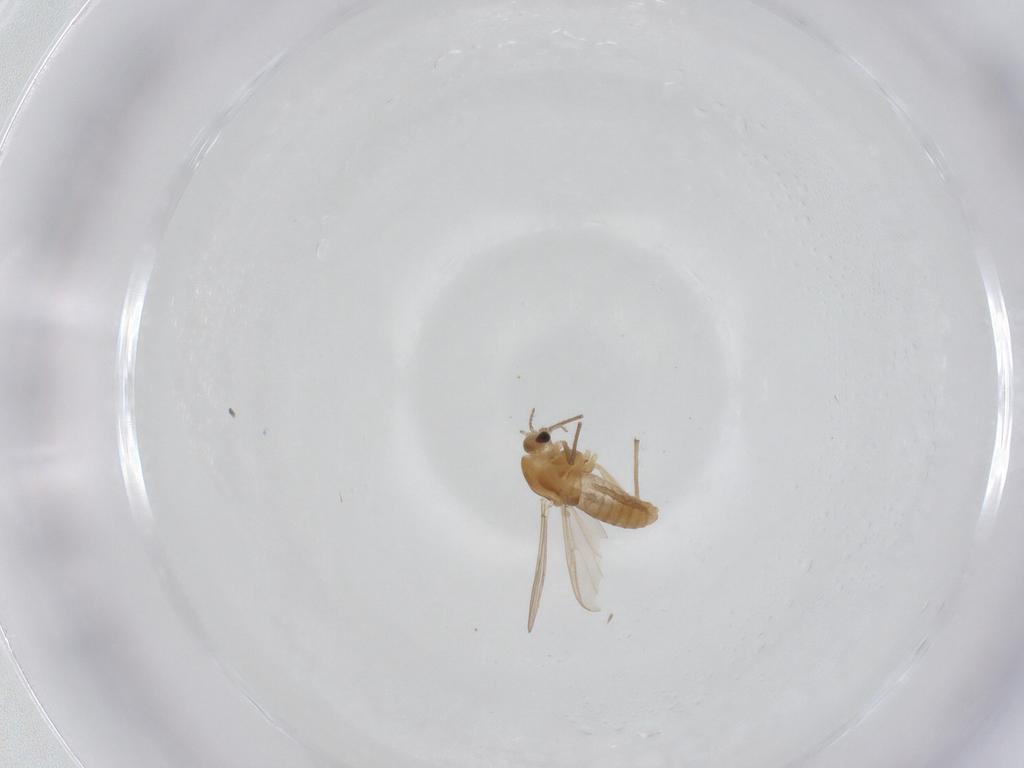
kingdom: Animalia
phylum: Arthropoda
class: Insecta
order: Diptera
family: Chironomidae
